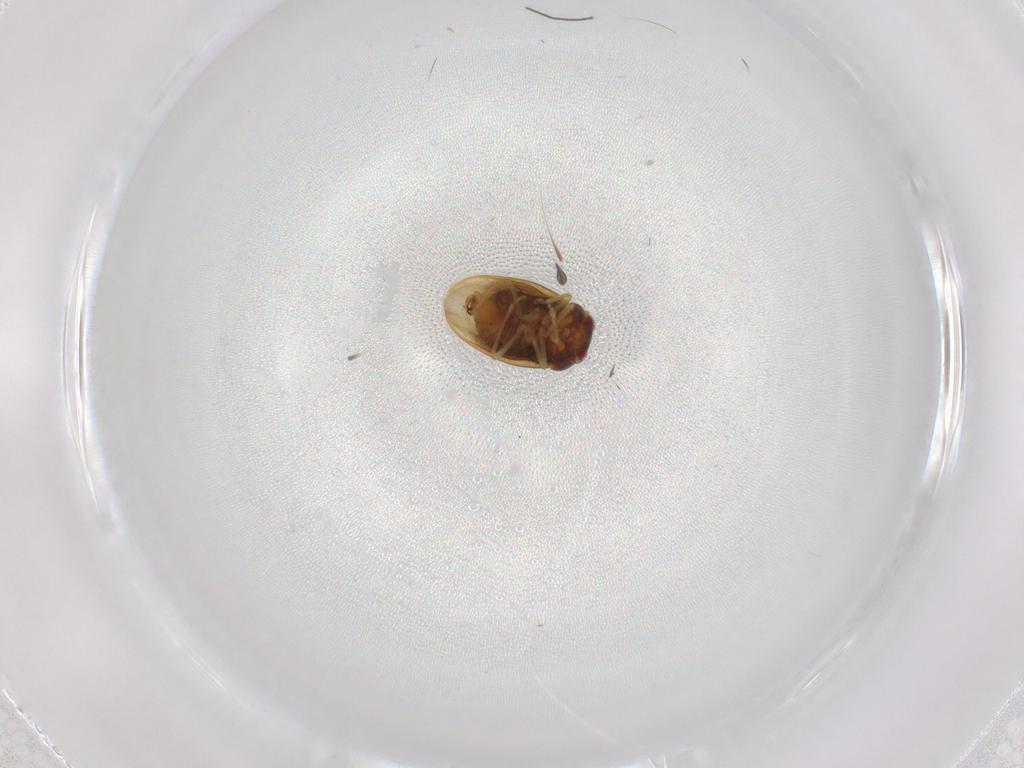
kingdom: Animalia
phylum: Arthropoda
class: Insecta
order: Hemiptera
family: Schizopteridae
